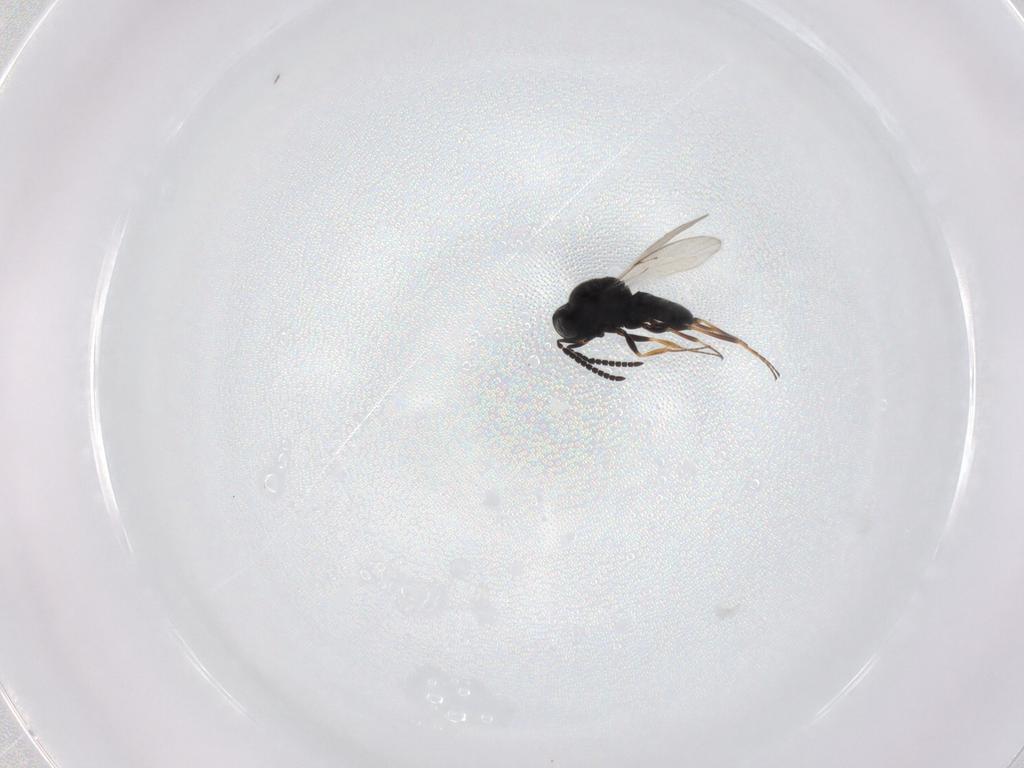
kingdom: Animalia
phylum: Arthropoda
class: Insecta
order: Hymenoptera
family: Scelionidae
